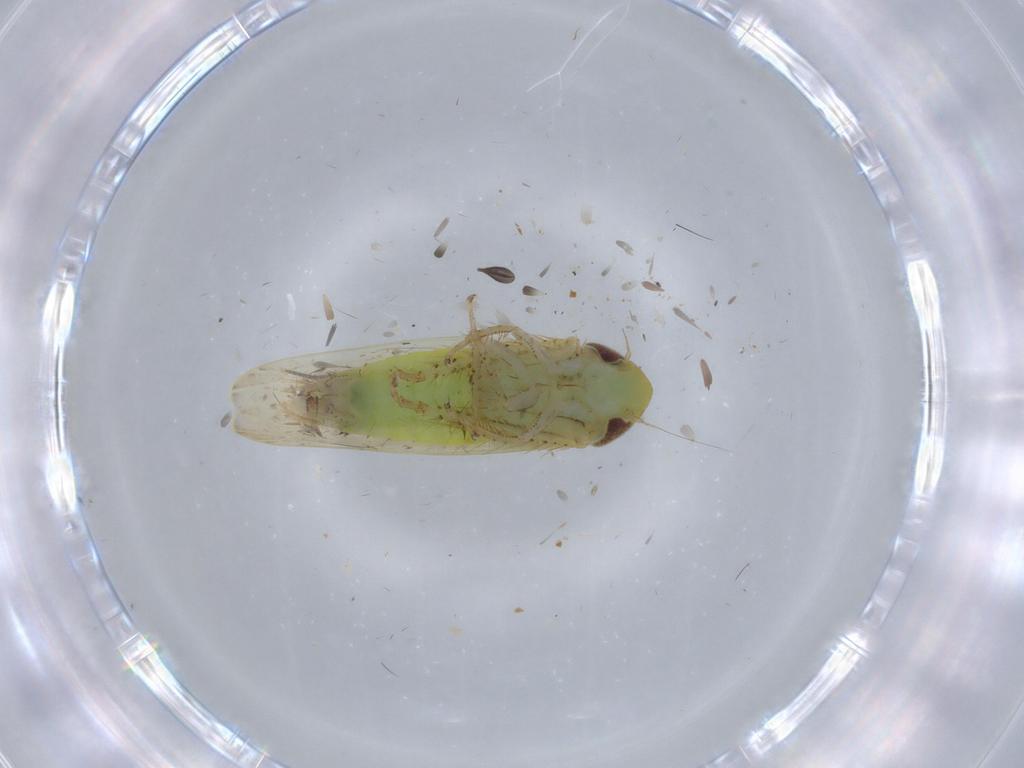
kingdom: Animalia
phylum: Arthropoda
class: Insecta
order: Hemiptera
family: Cicadellidae
